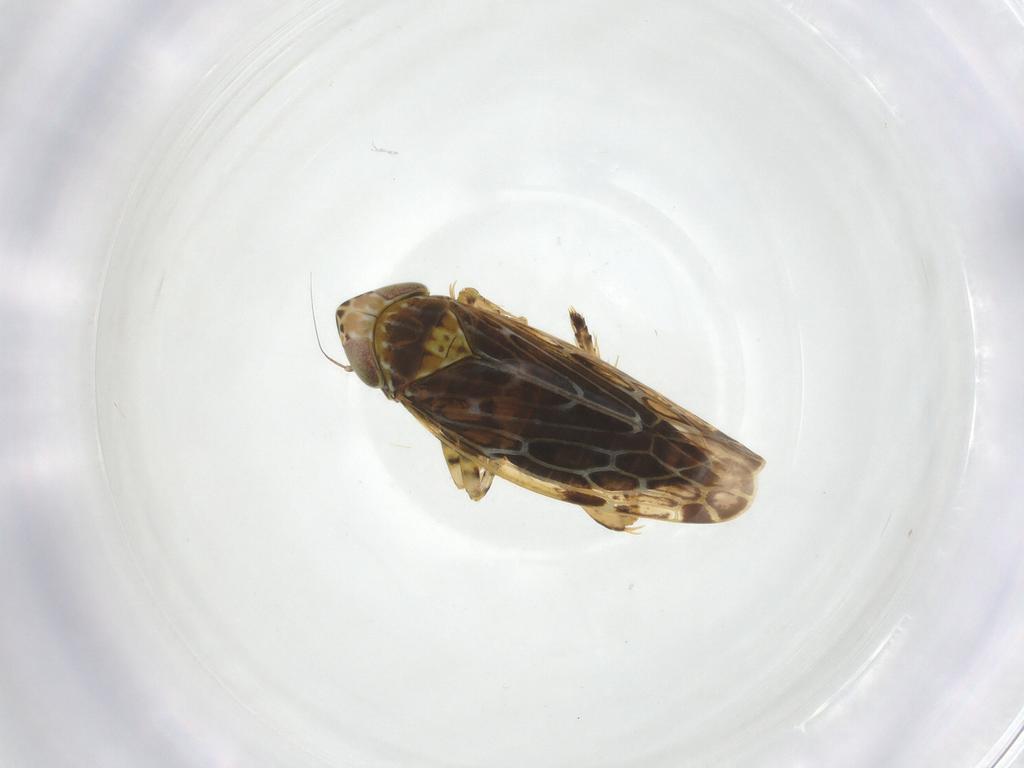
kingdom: Animalia
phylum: Arthropoda
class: Insecta
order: Hemiptera
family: Cicadellidae
